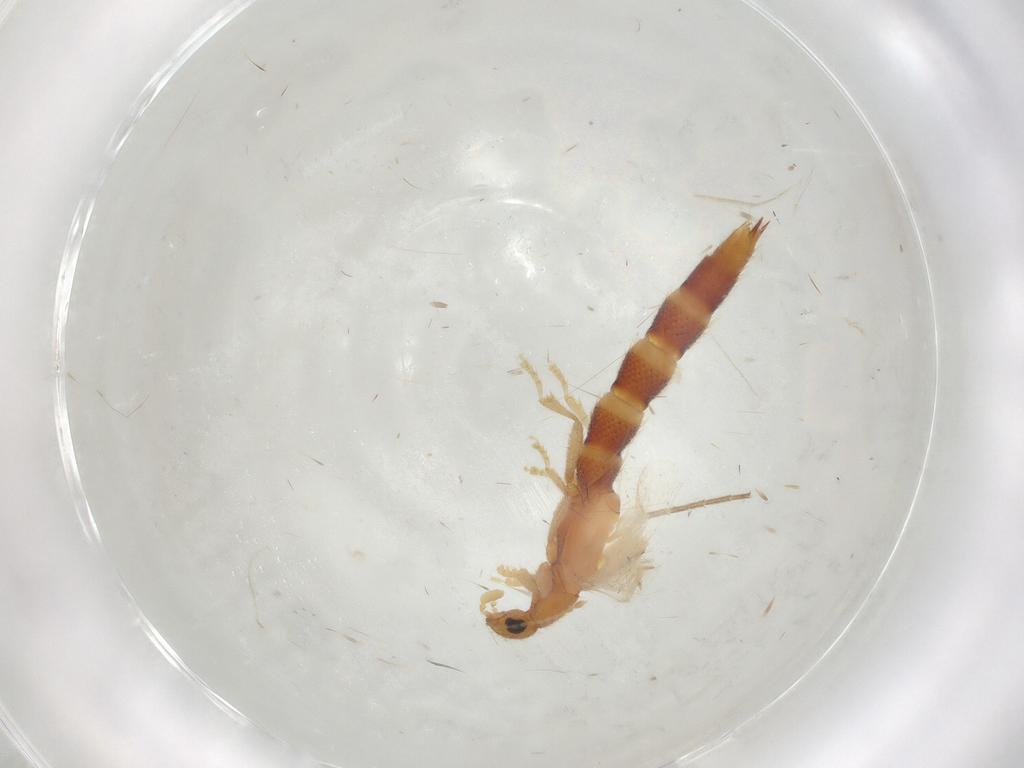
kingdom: Animalia
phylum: Arthropoda
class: Insecta
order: Coleoptera
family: Staphylinidae
